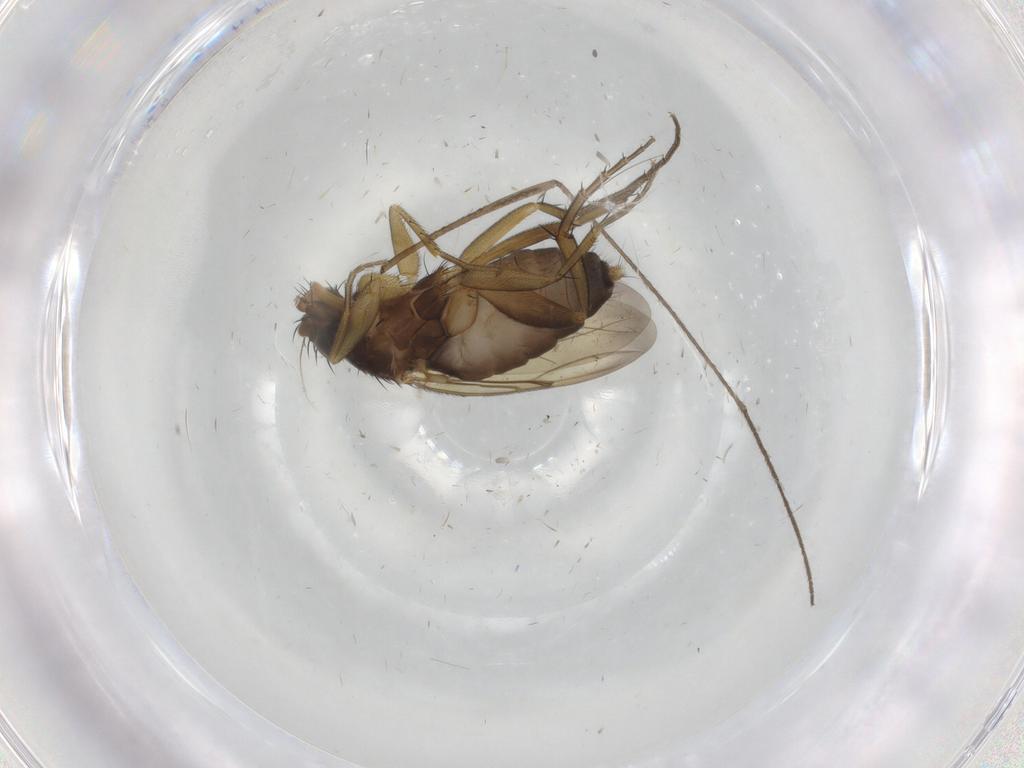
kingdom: Animalia
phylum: Arthropoda
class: Insecta
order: Diptera
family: Limoniidae
